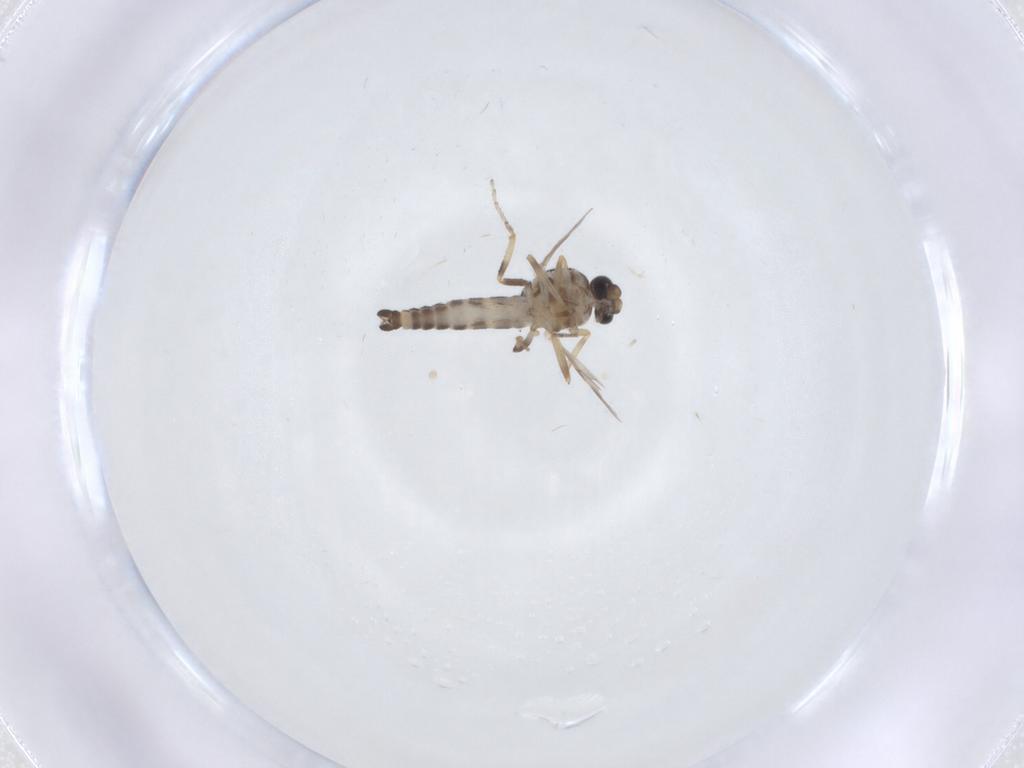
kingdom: Animalia
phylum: Arthropoda
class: Insecta
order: Diptera
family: Ceratopogonidae
